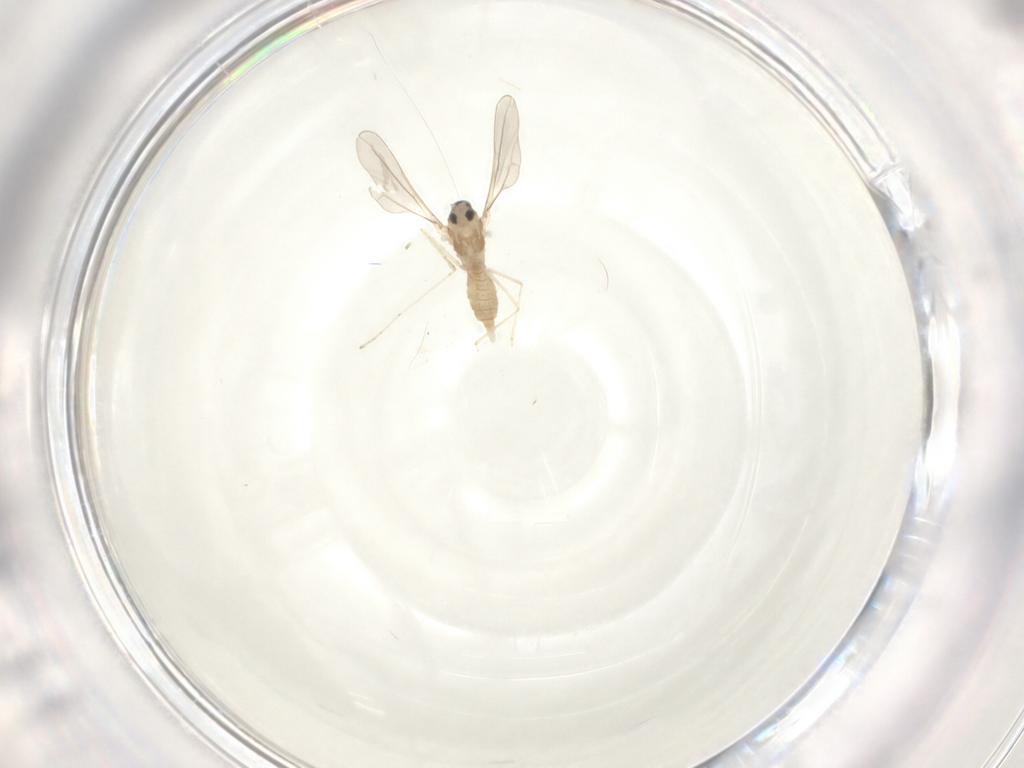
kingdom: Animalia
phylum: Arthropoda
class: Insecta
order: Diptera
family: Cecidomyiidae
